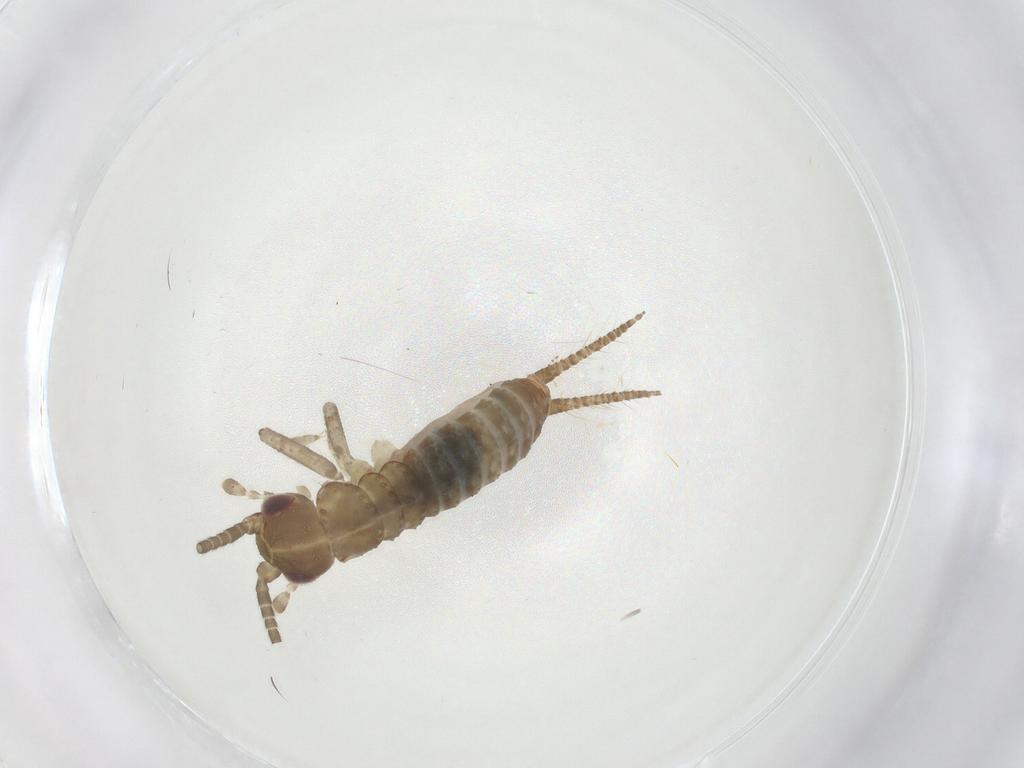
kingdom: Animalia
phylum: Arthropoda
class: Insecta
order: Orthoptera
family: Gryllidae
